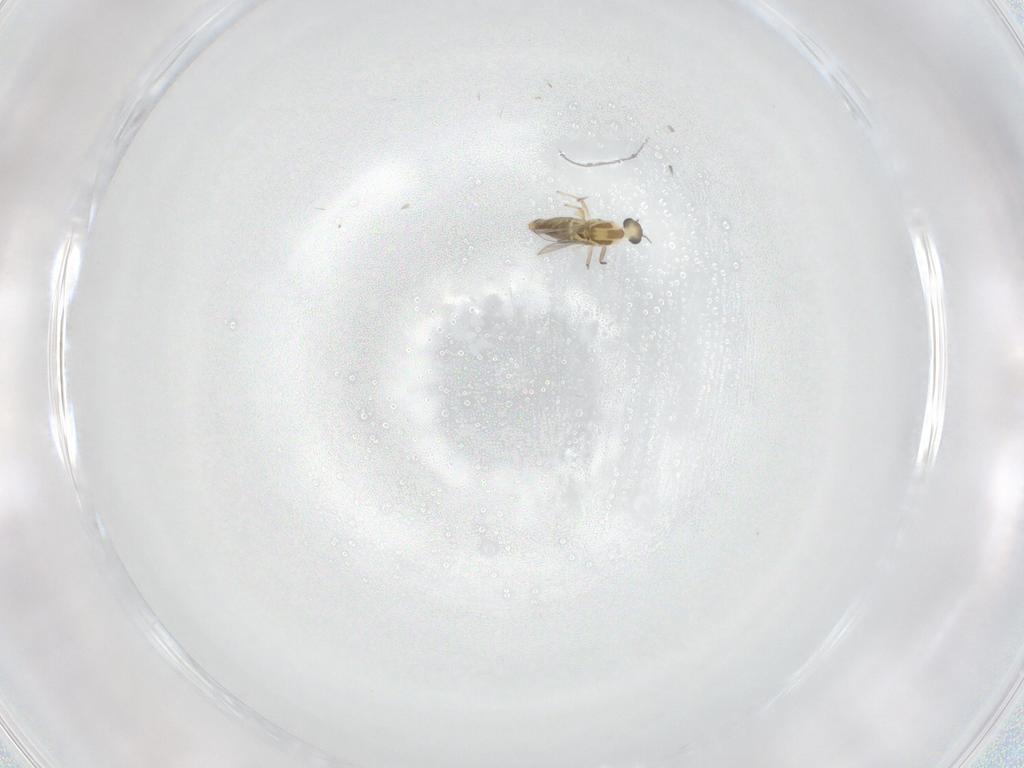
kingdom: Animalia
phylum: Arthropoda
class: Insecta
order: Diptera
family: Chironomidae
